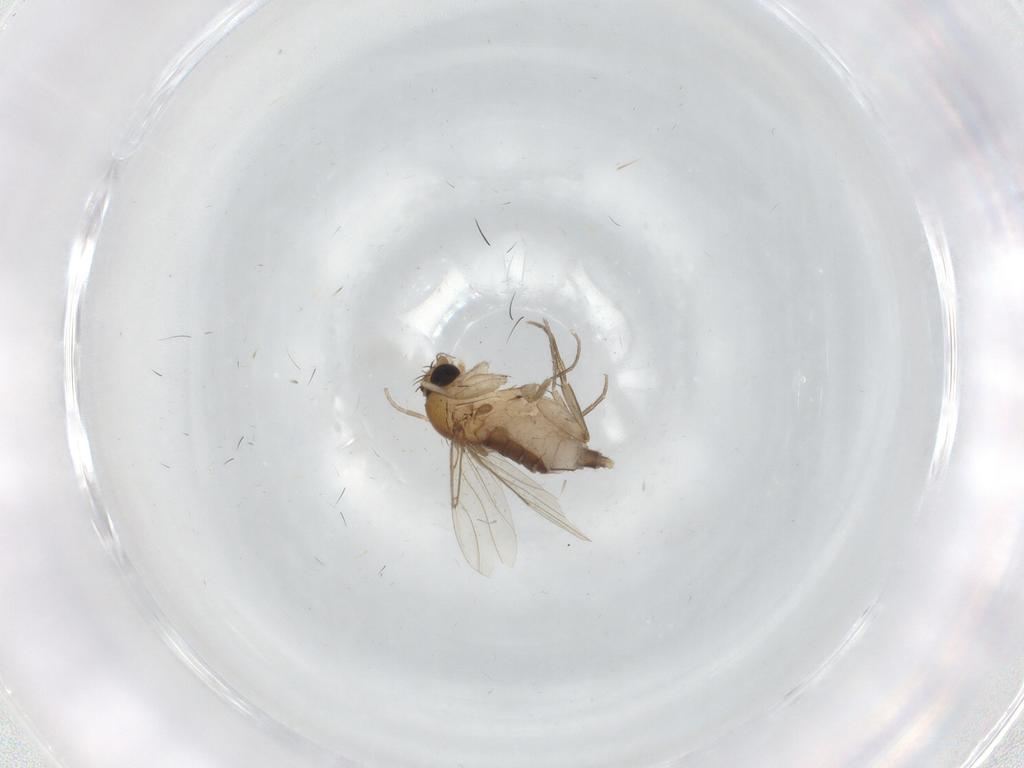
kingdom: Animalia
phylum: Arthropoda
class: Insecta
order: Diptera
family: Phoridae
